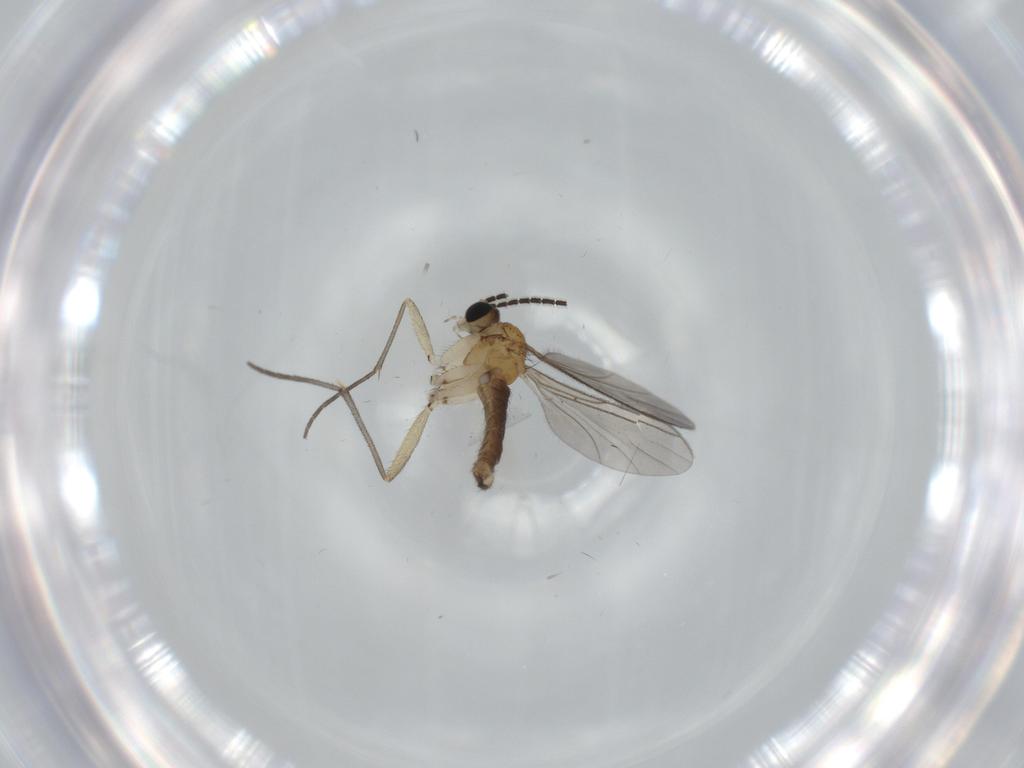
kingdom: Animalia
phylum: Arthropoda
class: Insecta
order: Diptera
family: Sciaridae
